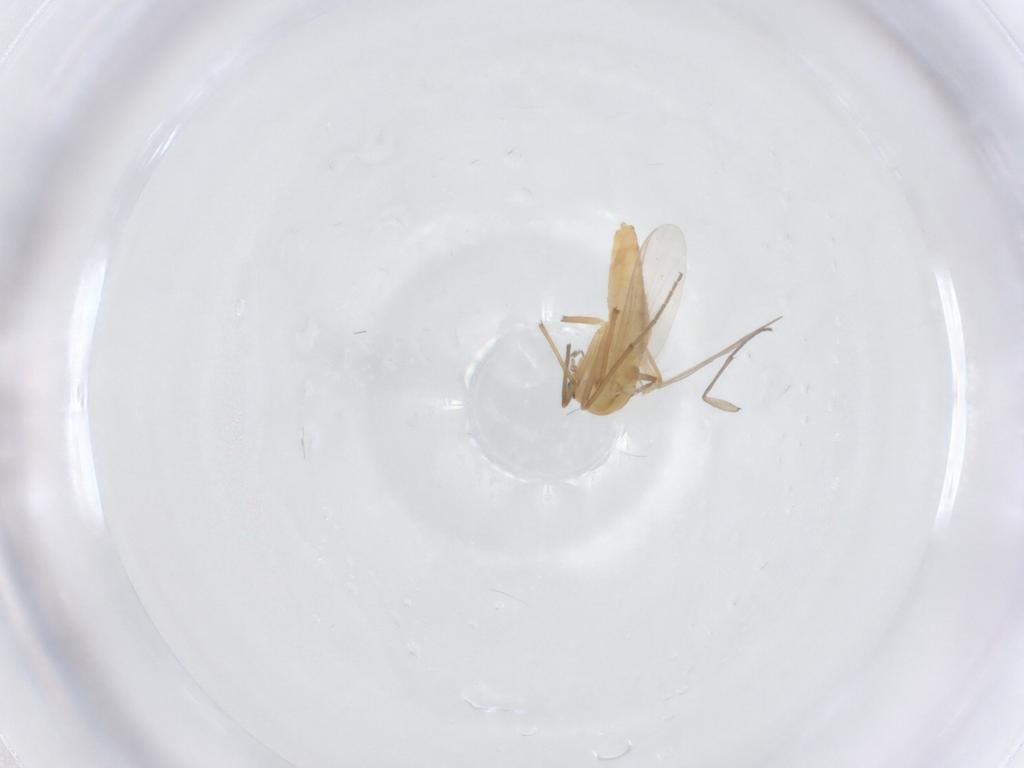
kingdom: Animalia
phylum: Arthropoda
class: Insecta
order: Diptera
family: Chironomidae
